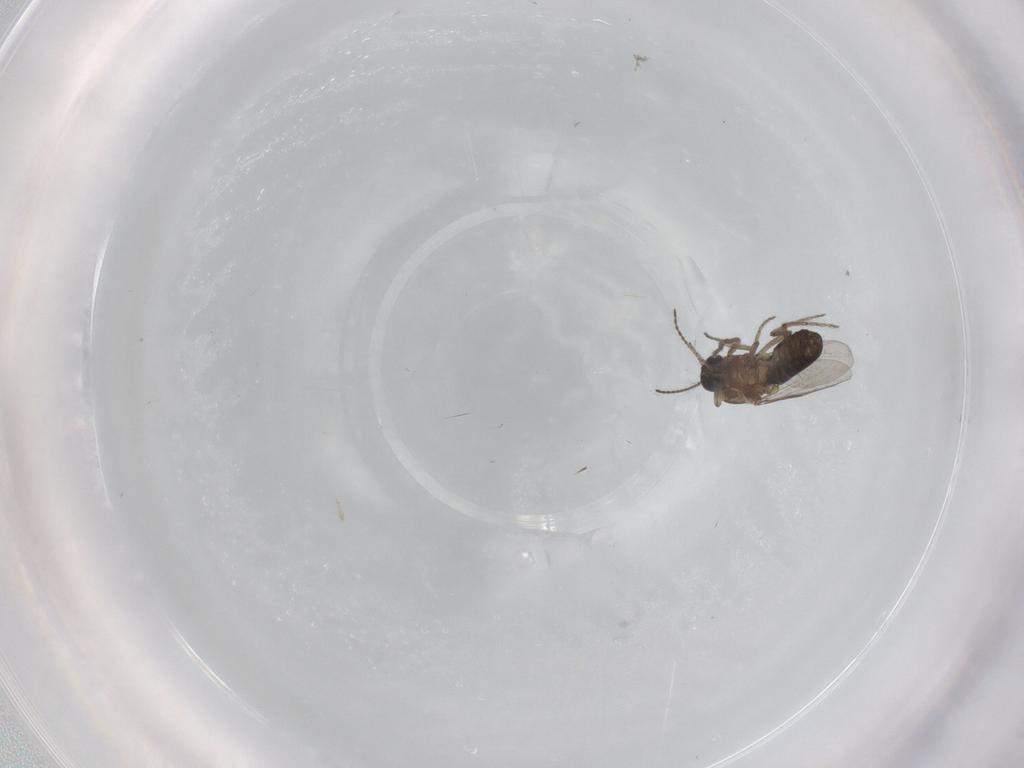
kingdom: Animalia
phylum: Arthropoda
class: Insecta
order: Diptera
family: Ceratopogonidae
